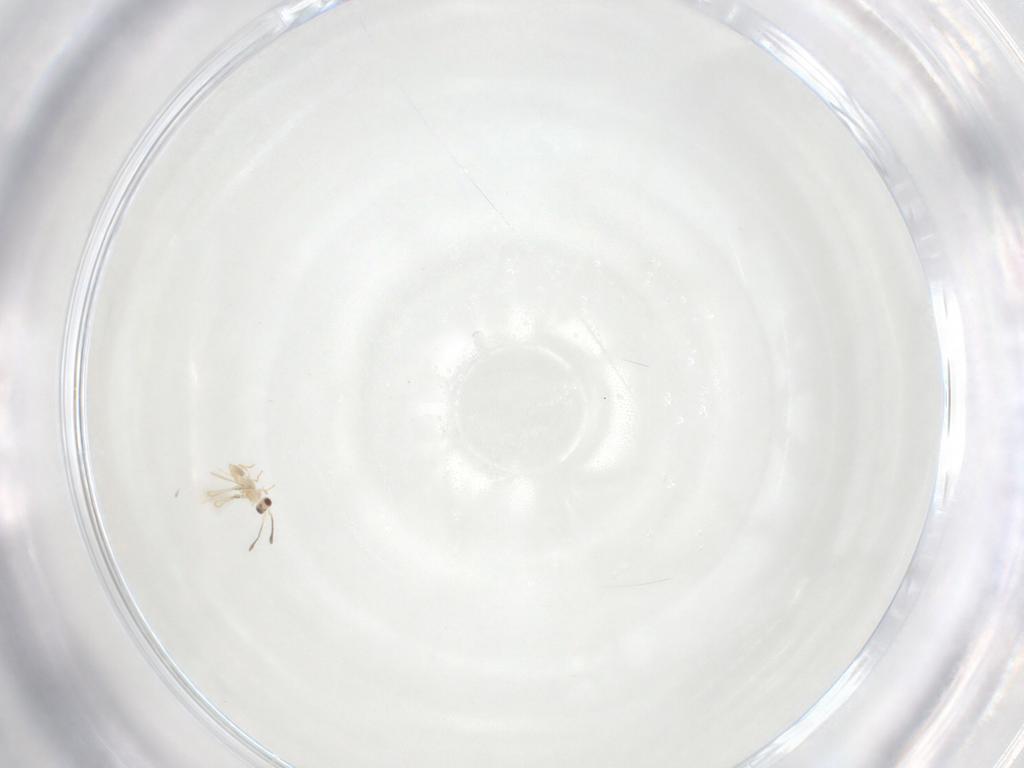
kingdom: Animalia
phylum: Arthropoda
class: Insecta
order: Hymenoptera
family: Mymaridae
